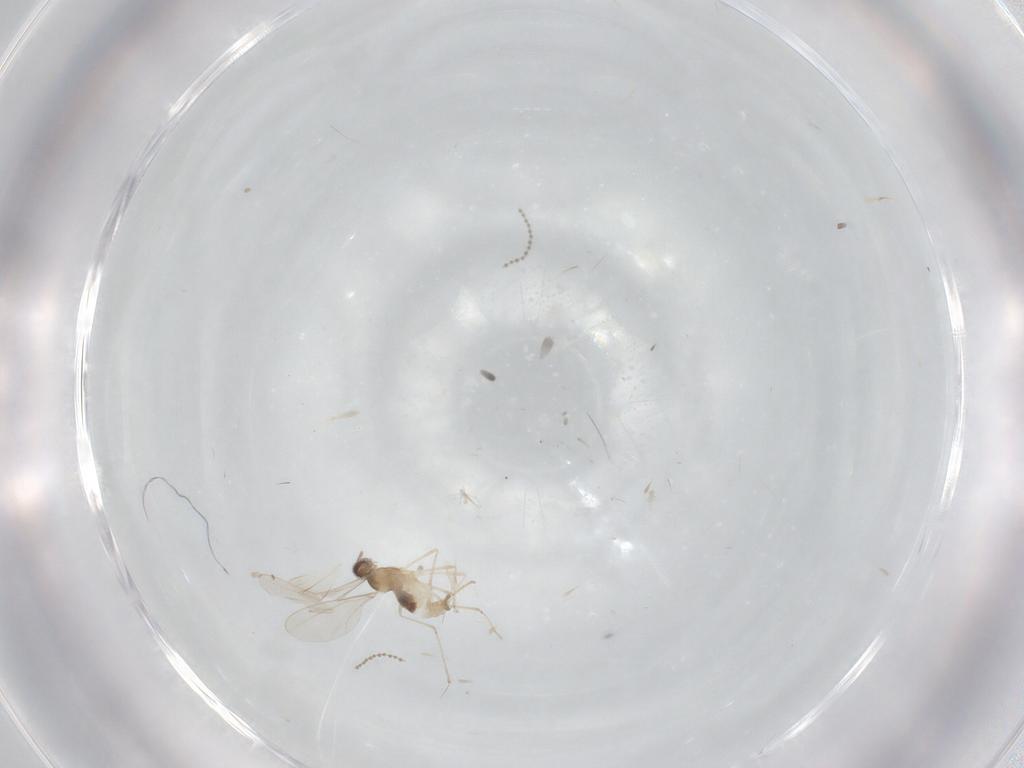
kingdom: Animalia
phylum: Arthropoda
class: Insecta
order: Diptera
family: Cecidomyiidae
